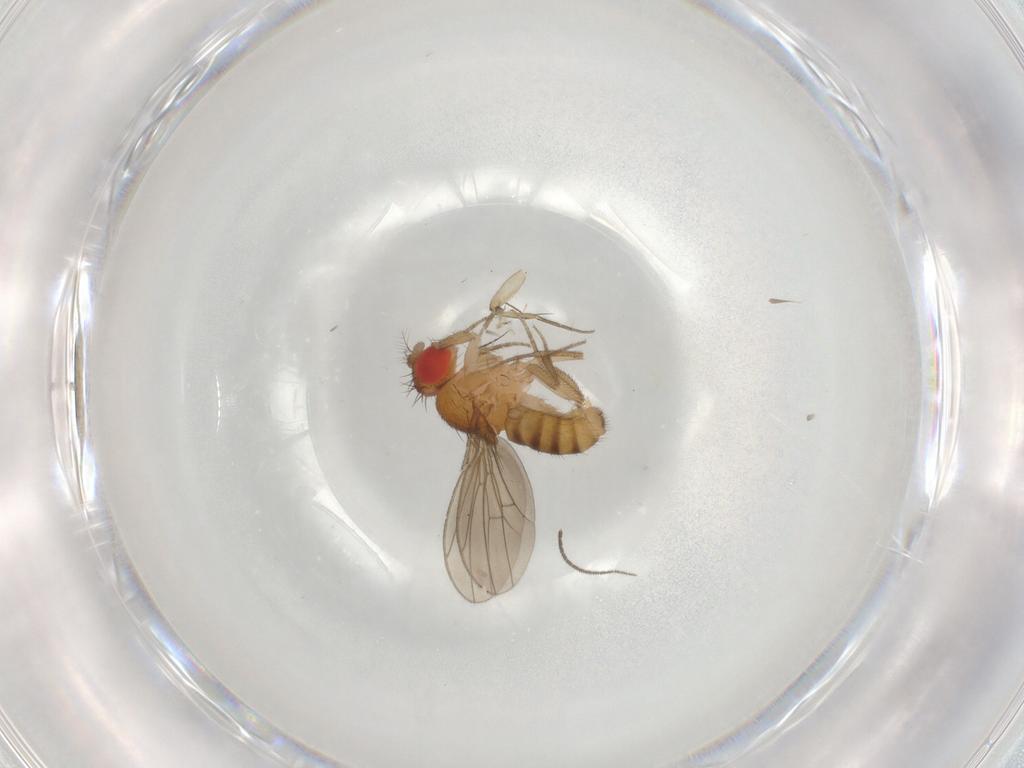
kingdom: Animalia
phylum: Arthropoda
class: Insecta
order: Diptera
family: Drosophilidae
